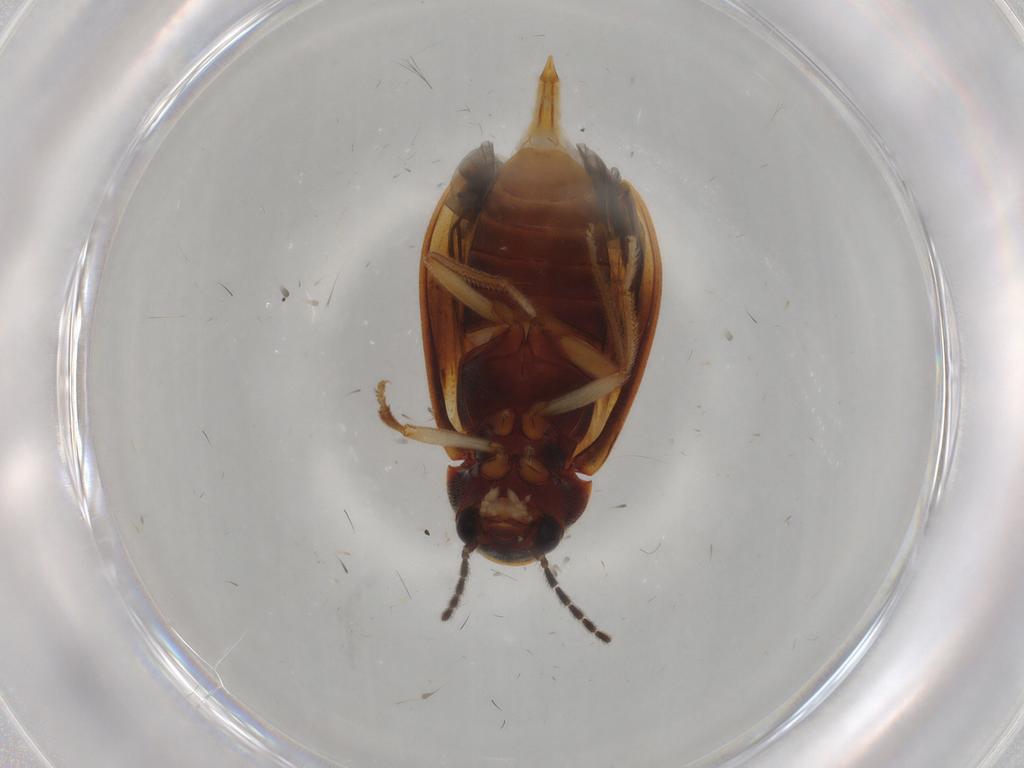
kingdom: Animalia
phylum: Arthropoda
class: Insecta
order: Coleoptera
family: Ptilodactylidae
